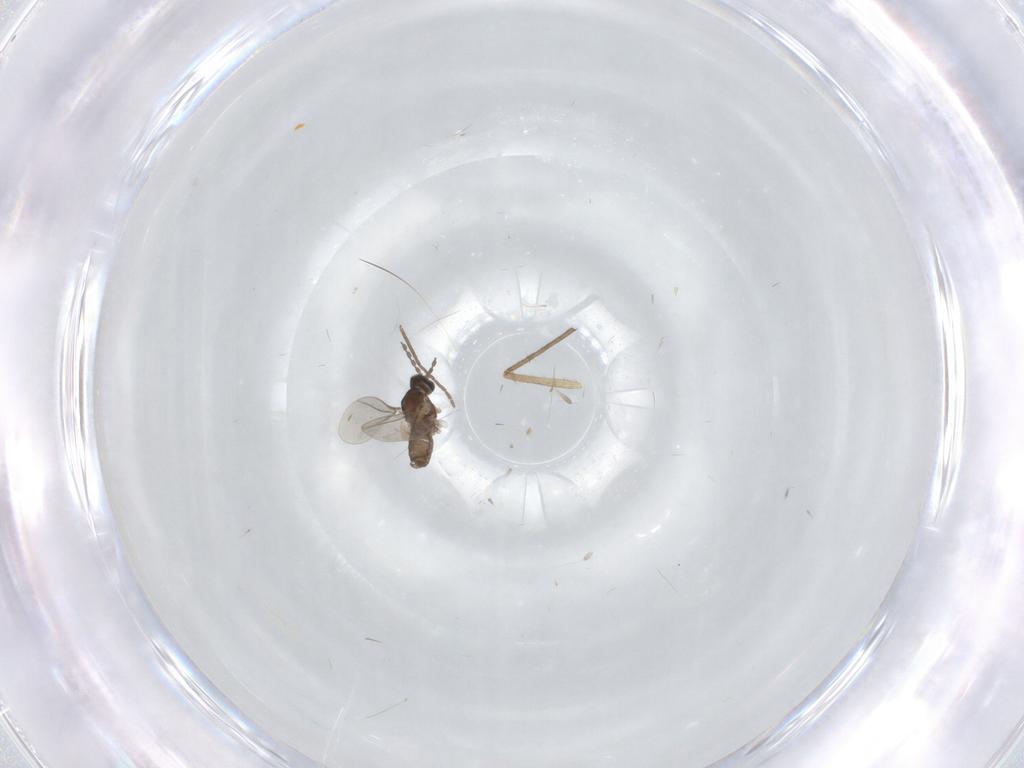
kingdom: Animalia
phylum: Arthropoda
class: Insecta
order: Diptera
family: Cecidomyiidae
